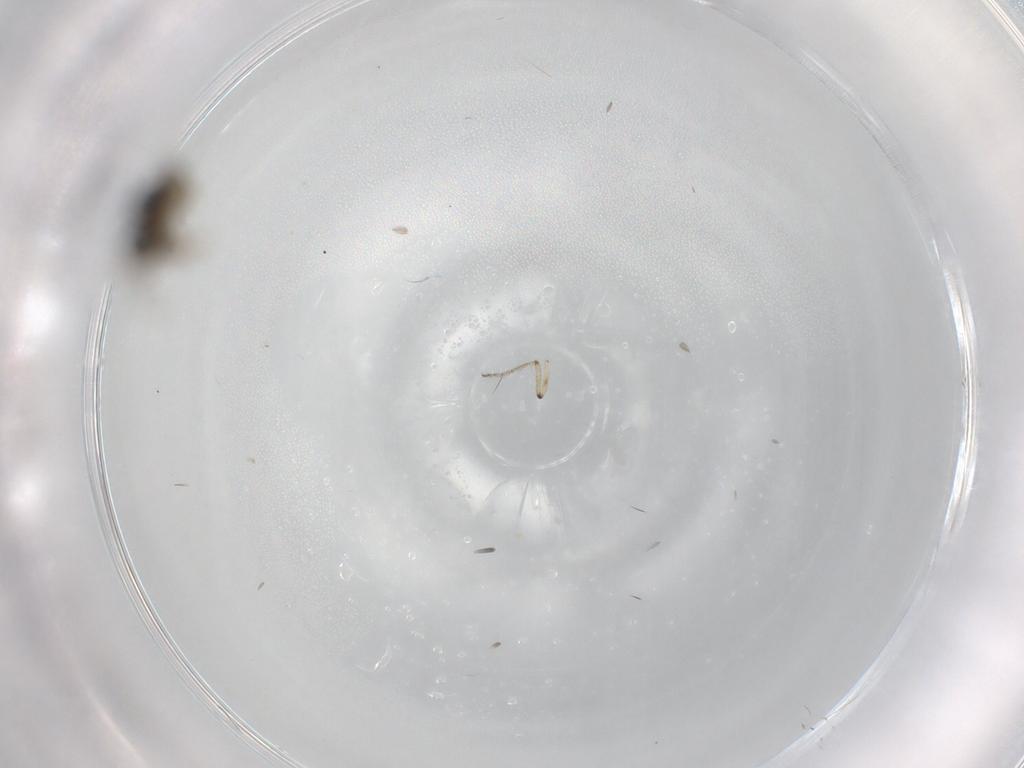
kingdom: Animalia
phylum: Arthropoda
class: Insecta
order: Diptera
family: Ceratopogonidae
